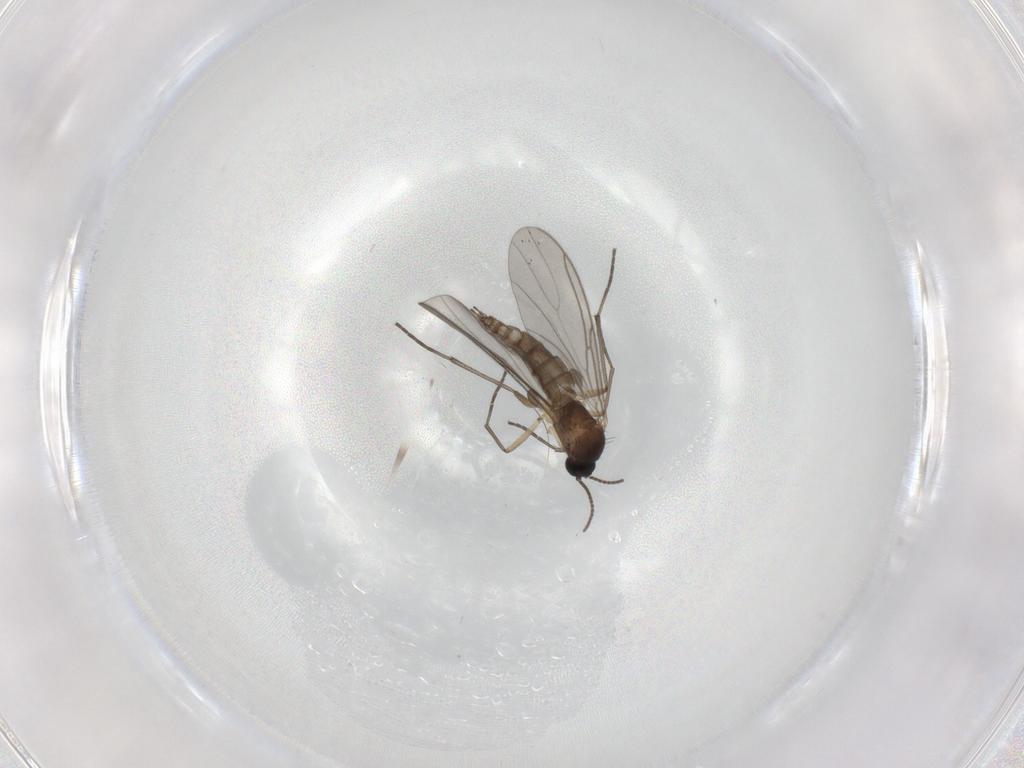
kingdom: Animalia
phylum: Arthropoda
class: Insecta
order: Diptera
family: Sciaridae
